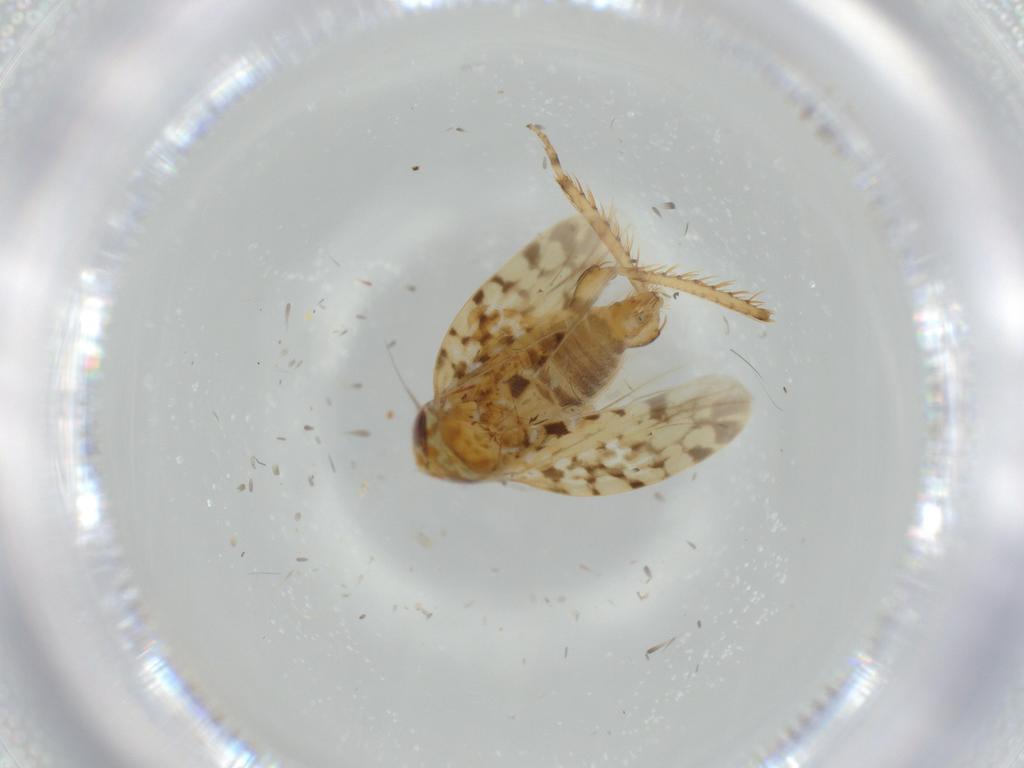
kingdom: Animalia
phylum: Arthropoda
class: Insecta
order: Hemiptera
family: Cicadellidae
